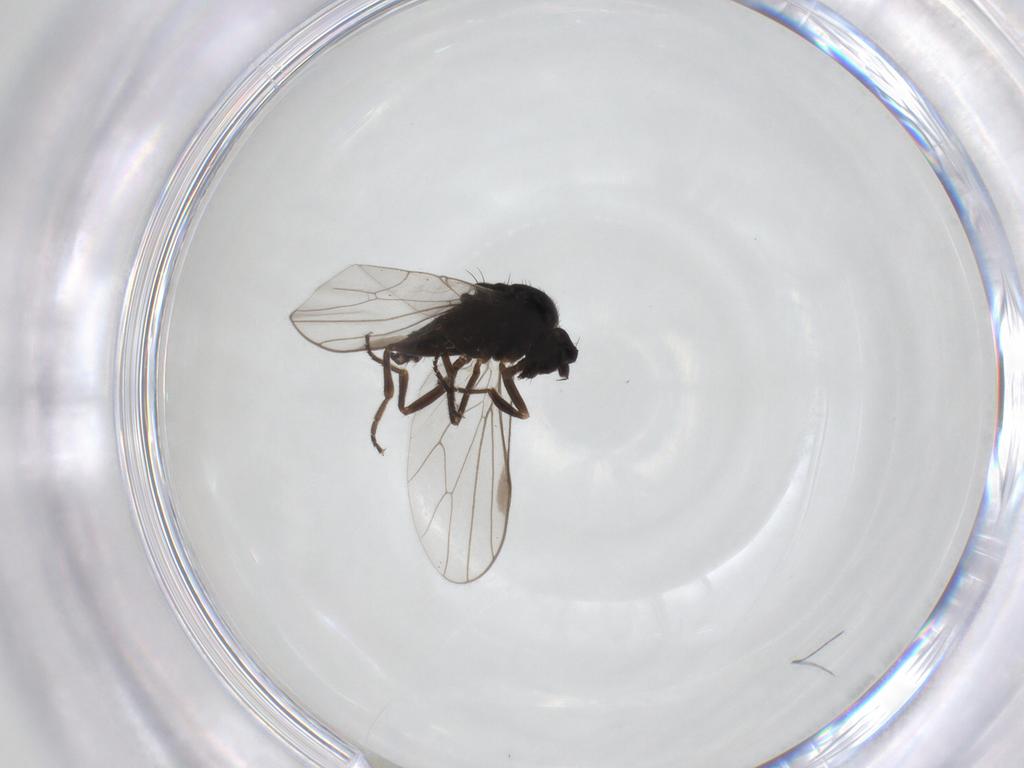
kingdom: Animalia
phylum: Arthropoda
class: Insecta
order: Diptera
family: Hybotidae
